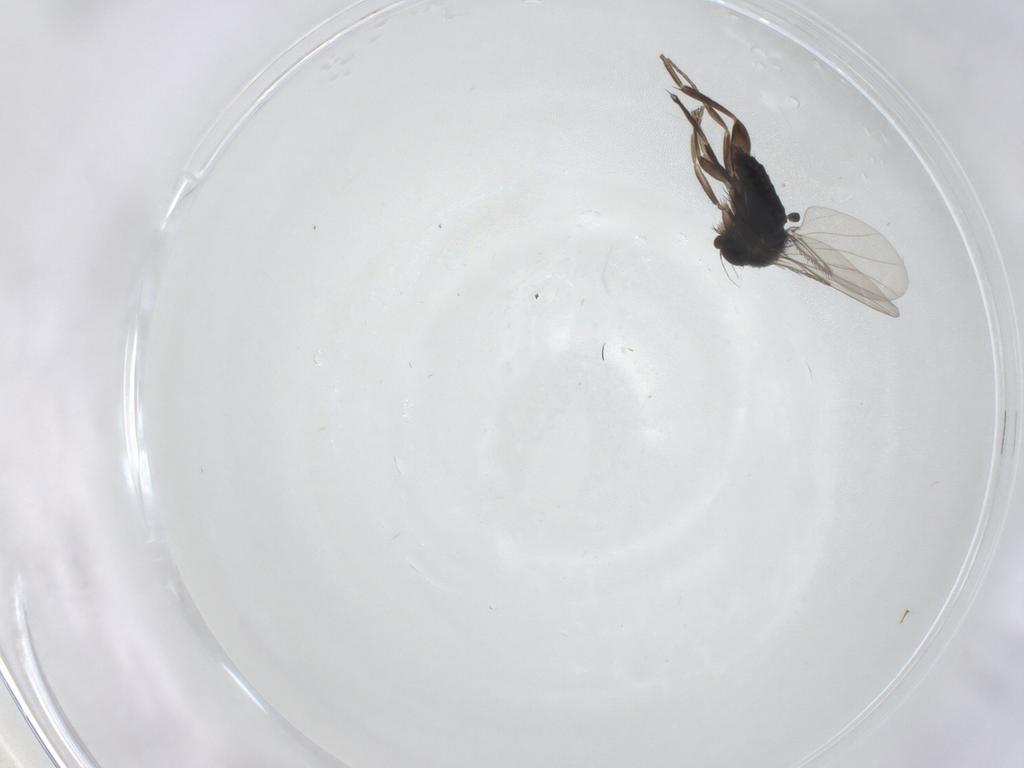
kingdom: Animalia
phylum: Arthropoda
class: Insecta
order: Diptera
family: Phoridae
